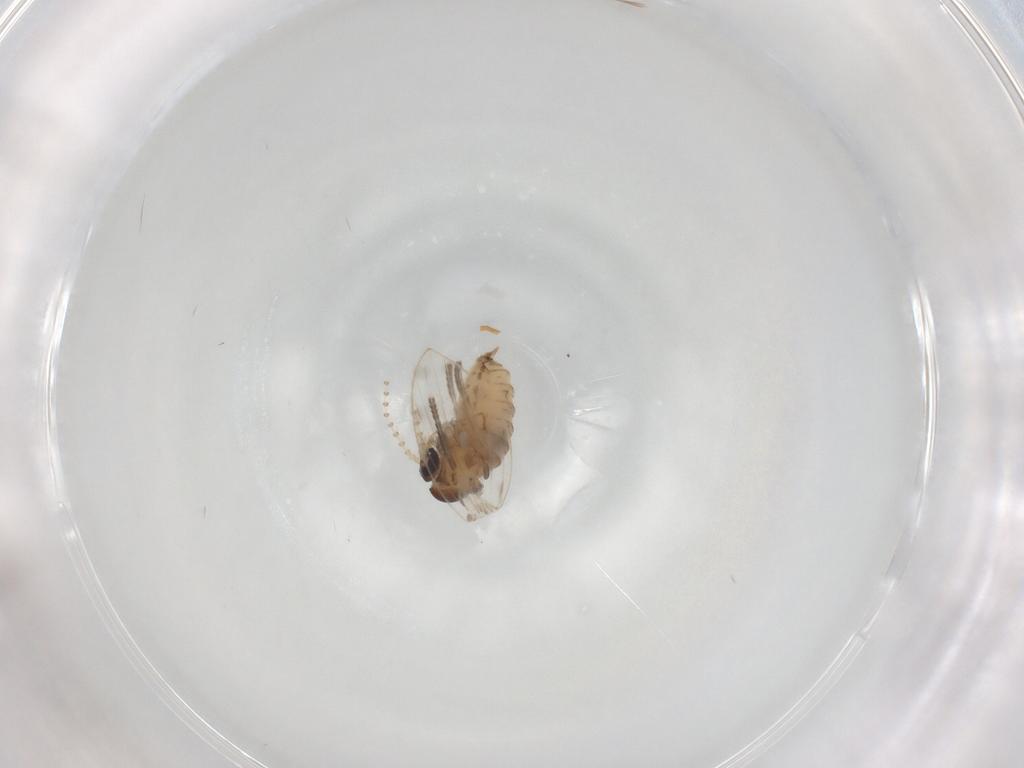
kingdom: Animalia
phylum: Arthropoda
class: Insecta
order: Diptera
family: Psychodidae
